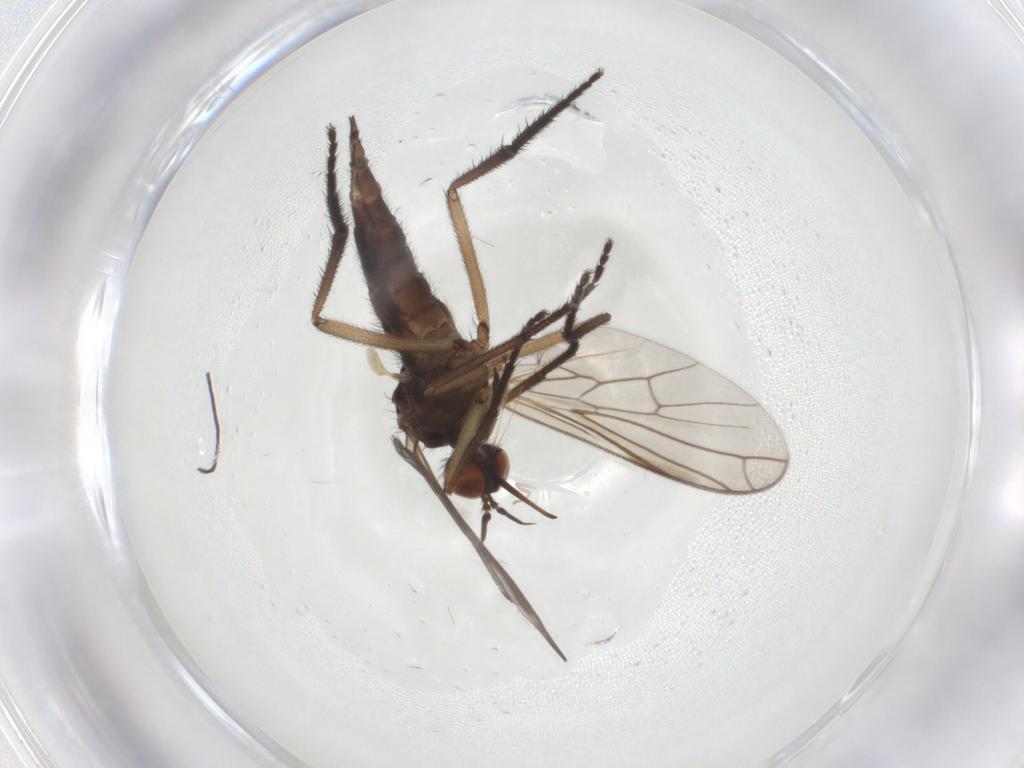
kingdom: Animalia
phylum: Arthropoda
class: Insecta
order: Diptera
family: Empididae
